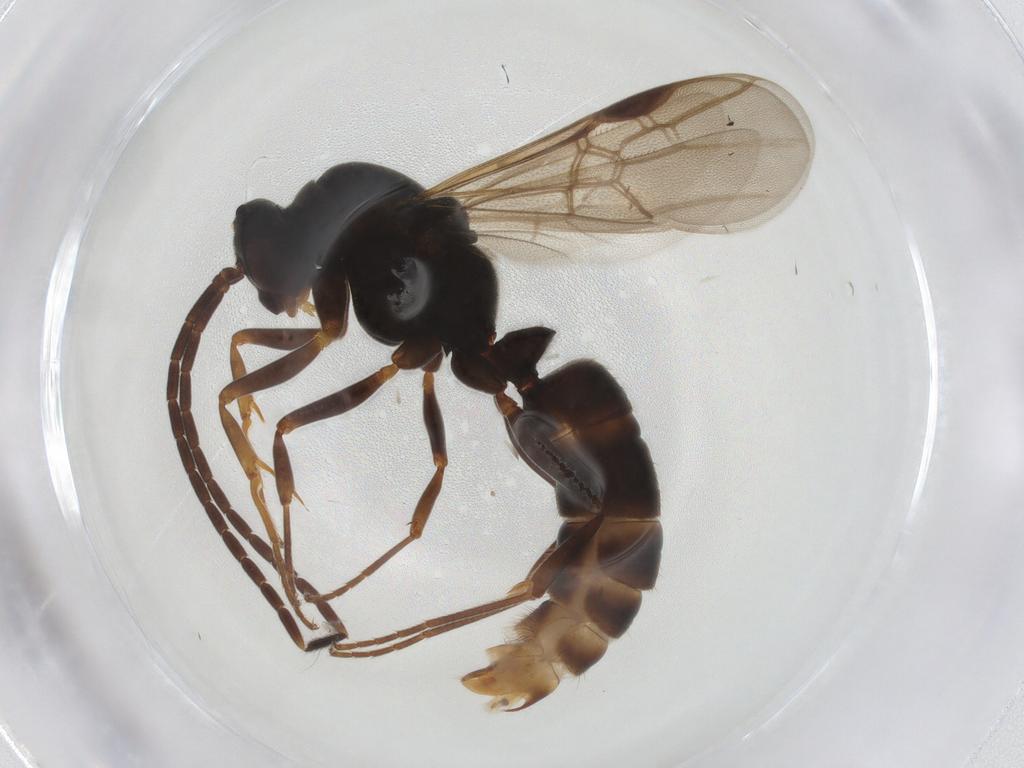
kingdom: Animalia
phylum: Arthropoda
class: Insecta
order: Hymenoptera
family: Formicidae
